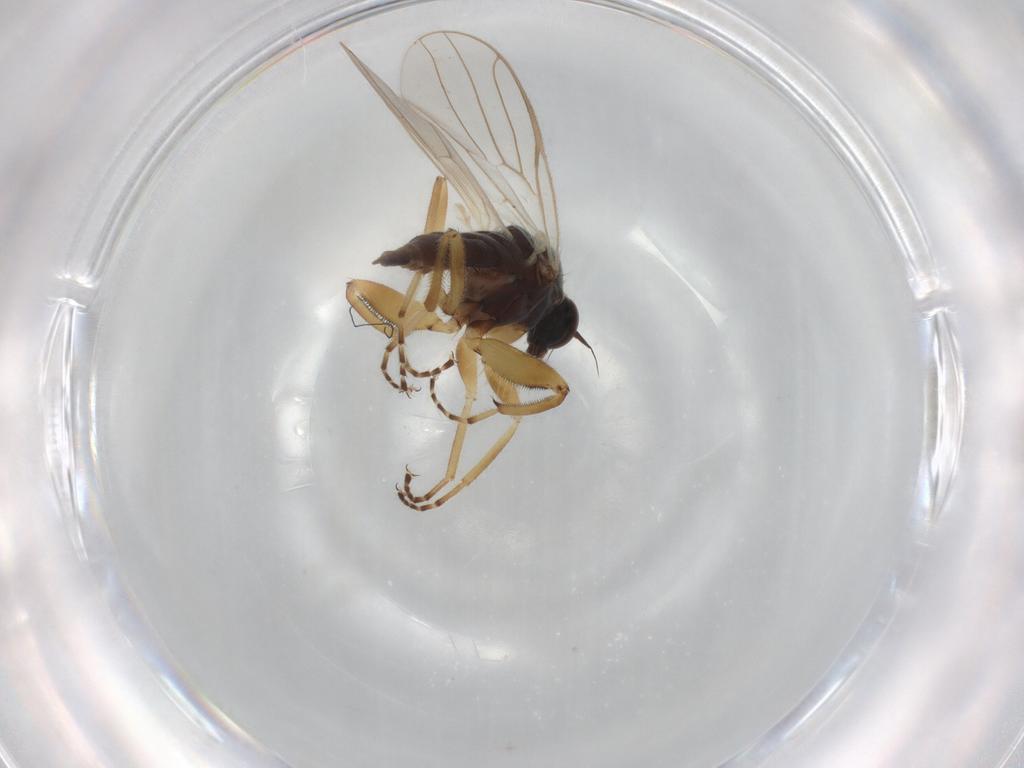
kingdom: Animalia
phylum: Arthropoda
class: Insecta
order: Diptera
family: Hybotidae
